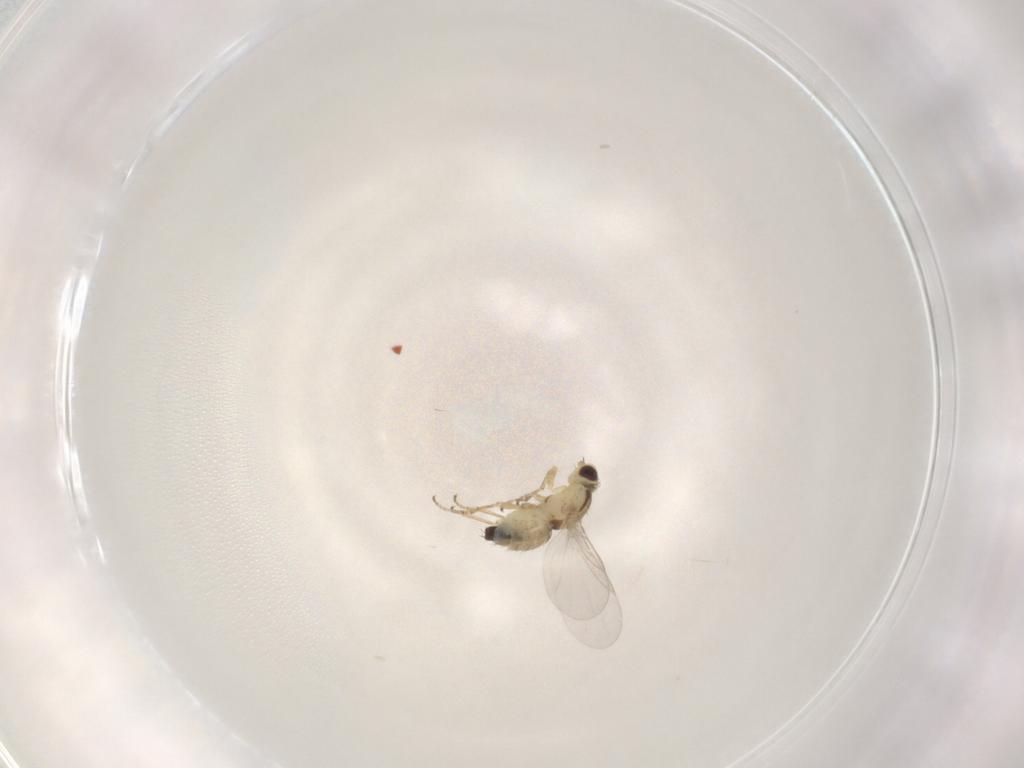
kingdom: Animalia
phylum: Arthropoda
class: Insecta
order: Diptera
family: Agromyzidae
